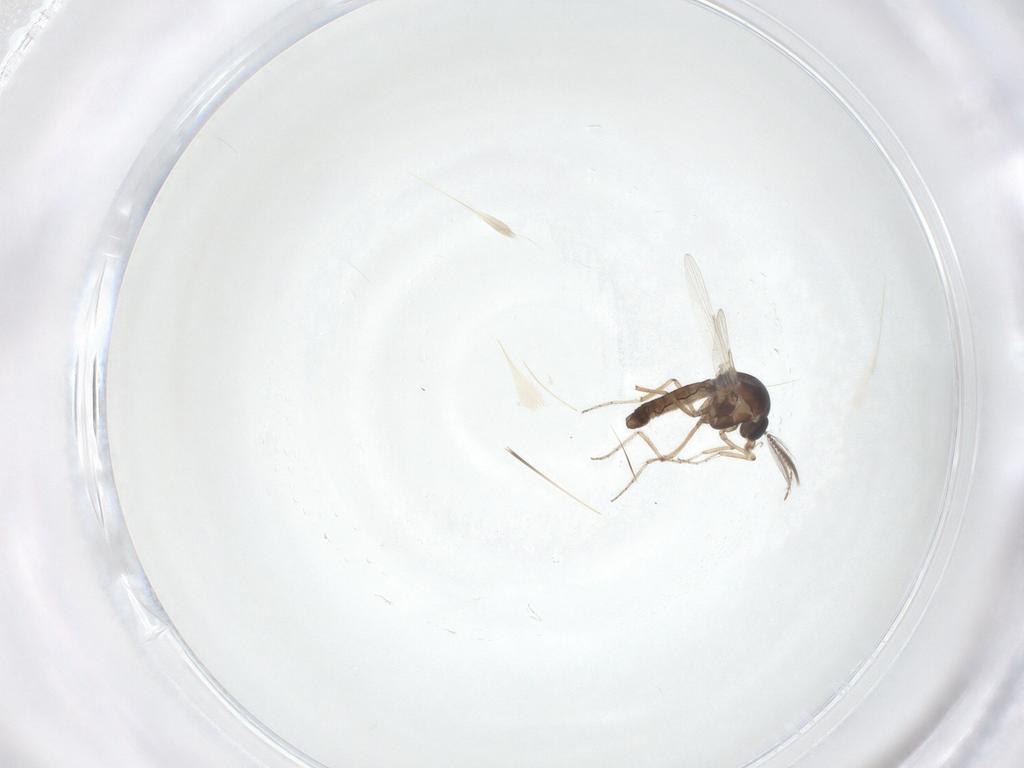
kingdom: Animalia
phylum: Arthropoda
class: Insecta
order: Diptera
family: Ceratopogonidae
